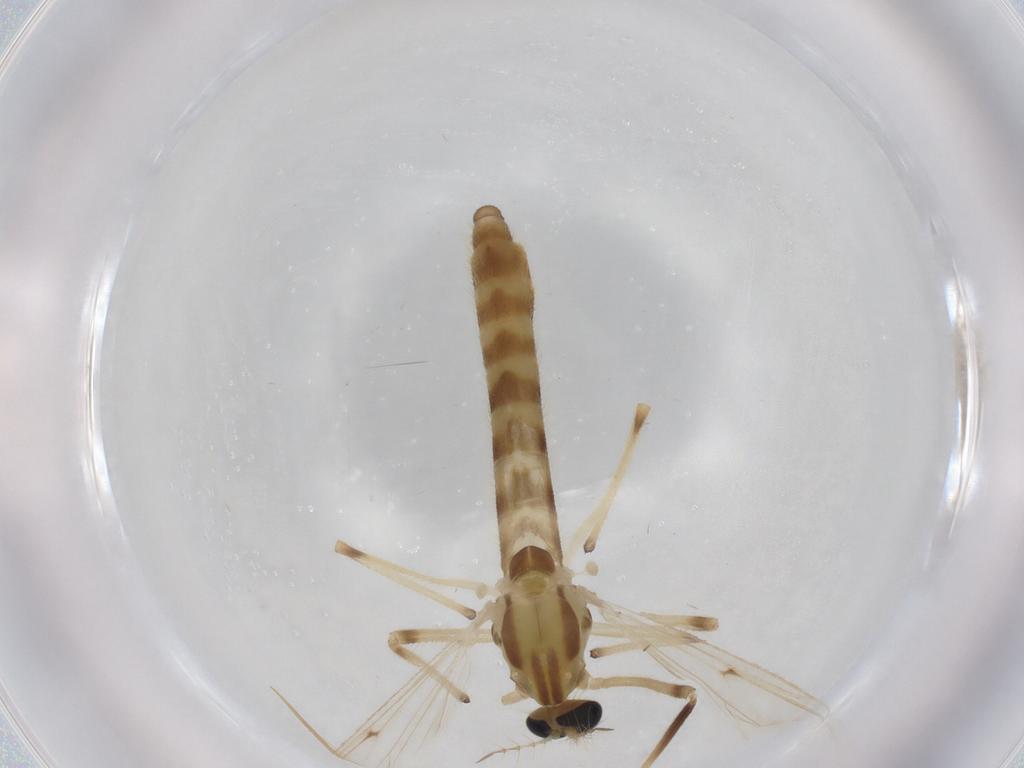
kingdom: Animalia
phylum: Arthropoda
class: Insecta
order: Diptera
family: Chironomidae
